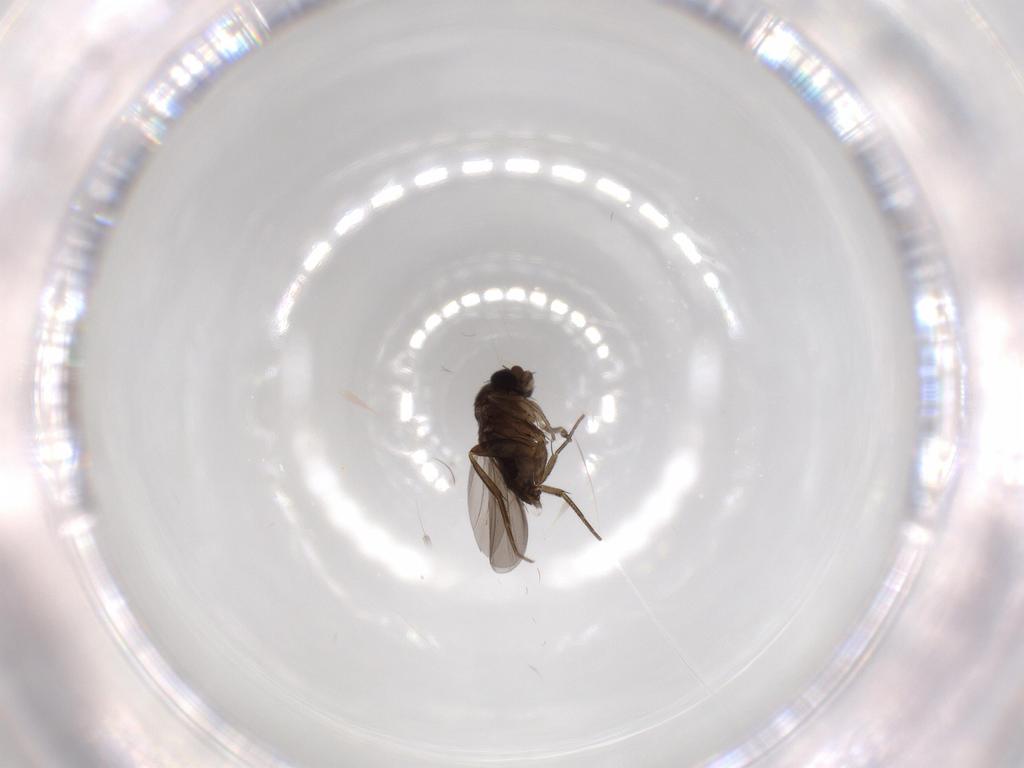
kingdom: Animalia
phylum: Arthropoda
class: Insecta
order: Diptera
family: Phoridae
